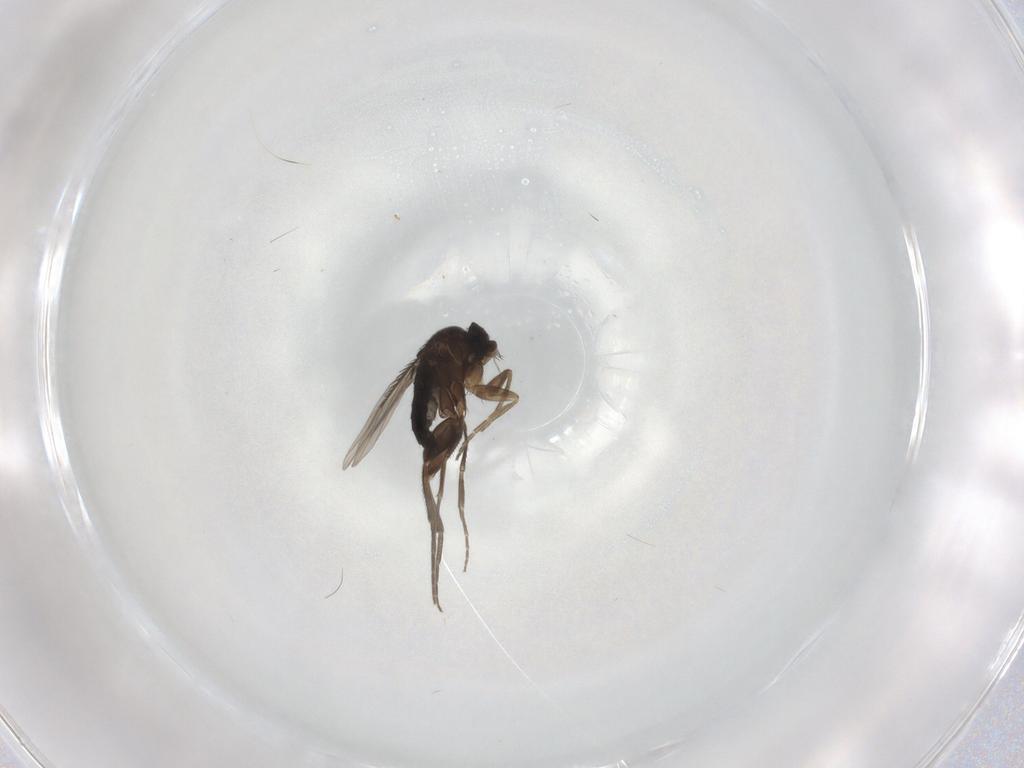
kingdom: Animalia
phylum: Arthropoda
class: Insecta
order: Diptera
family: Phoridae
